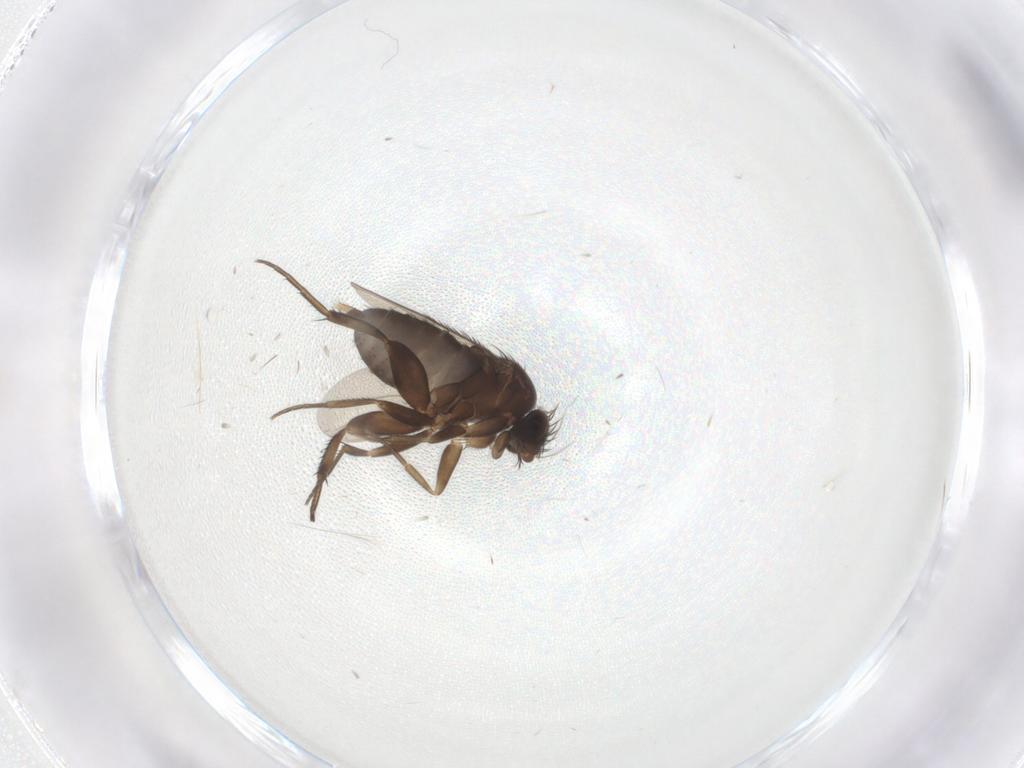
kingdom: Animalia
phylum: Arthropoda
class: Insecta
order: Diptera
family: Phoridae
